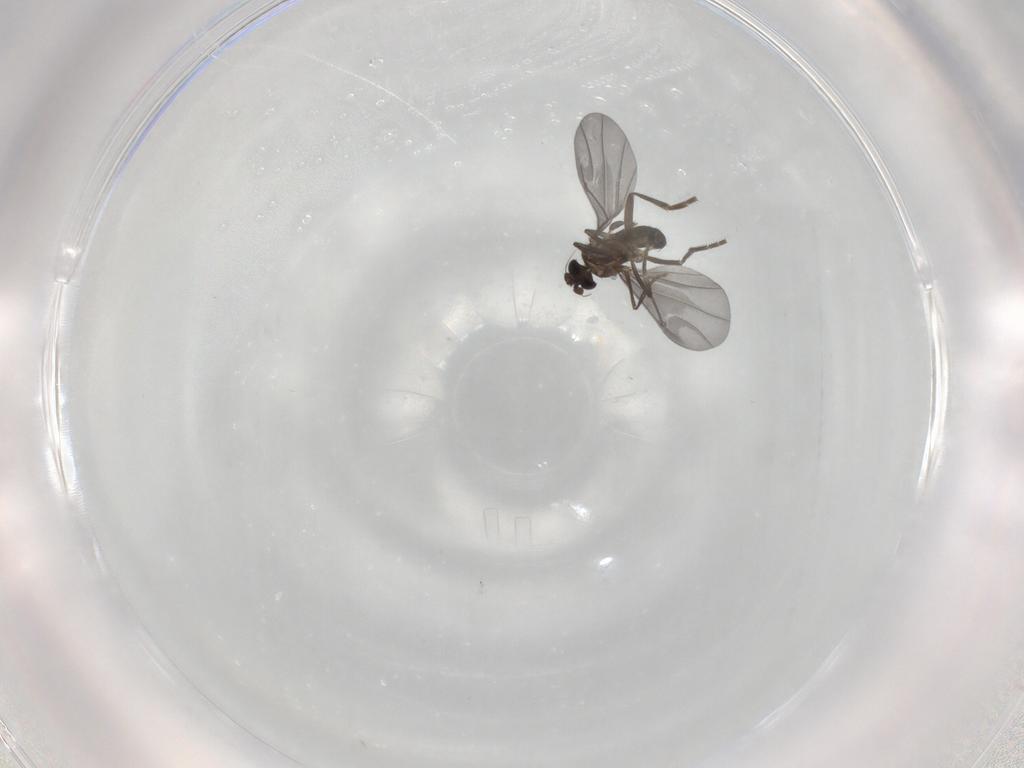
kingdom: Animalia
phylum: Arthropoda
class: Insecta
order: Diptera
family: Phoridae
